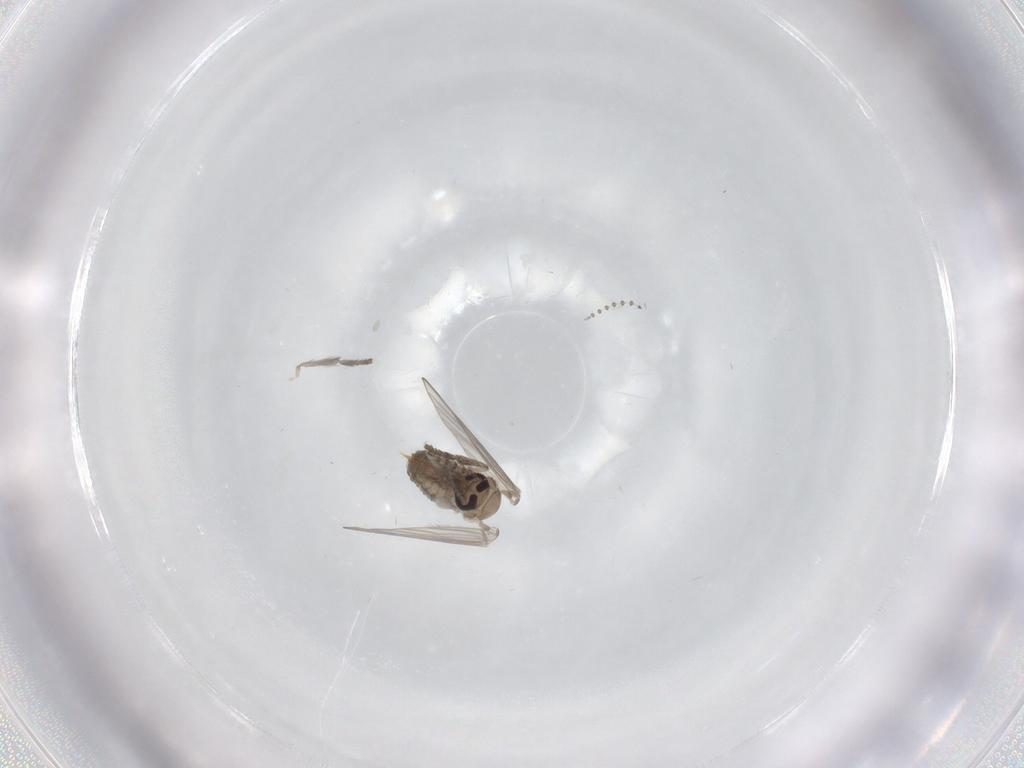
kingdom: Animalia
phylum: Arthropoda
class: Insecta
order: Diptera
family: Psychodidae
